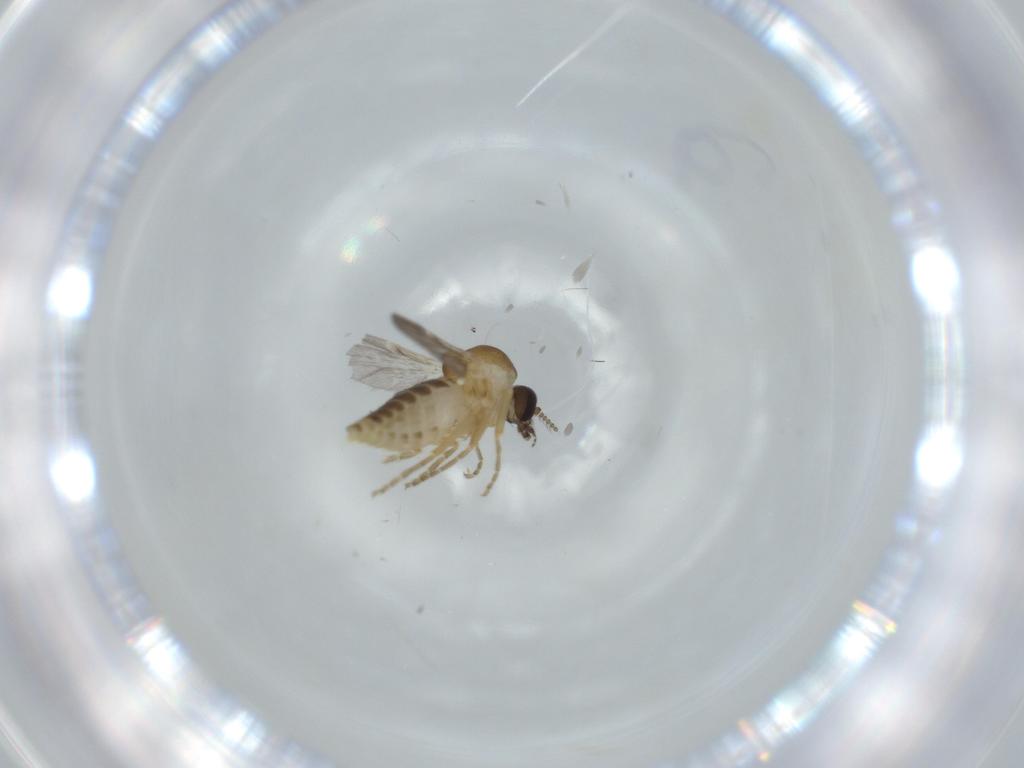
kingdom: Animalia
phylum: Arthropoda
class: Insecta
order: Diptera
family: Ceratopogonidae
